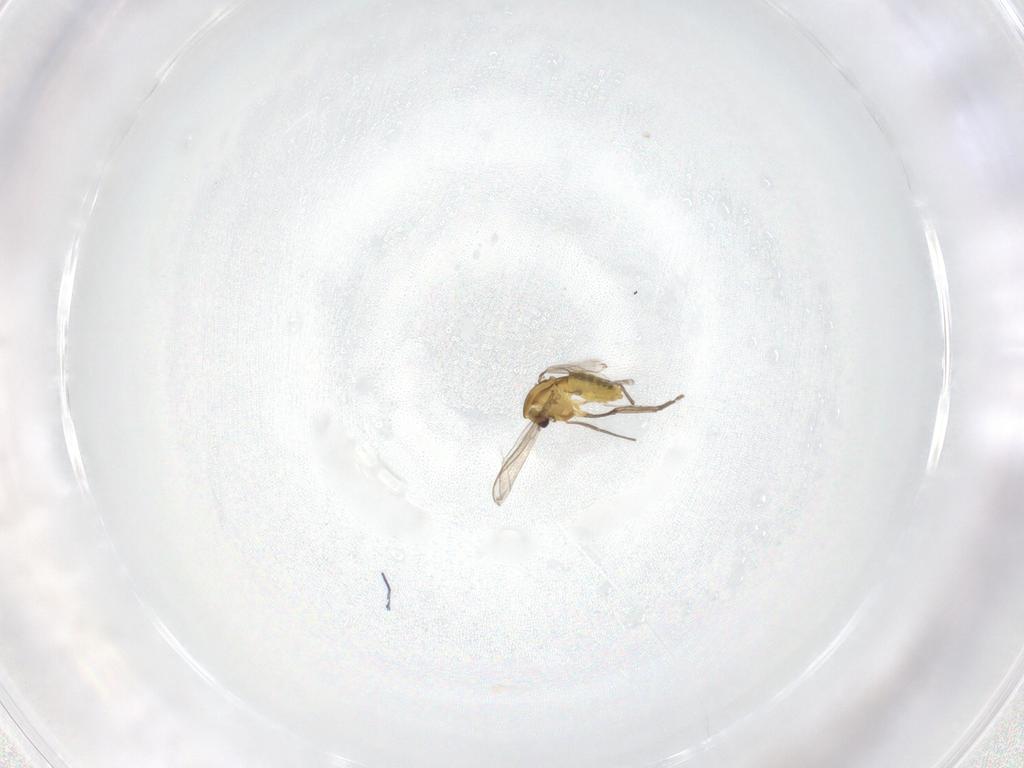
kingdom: Animalia
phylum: Arthropoda
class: Insecta
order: Diptera
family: Chironomidae
